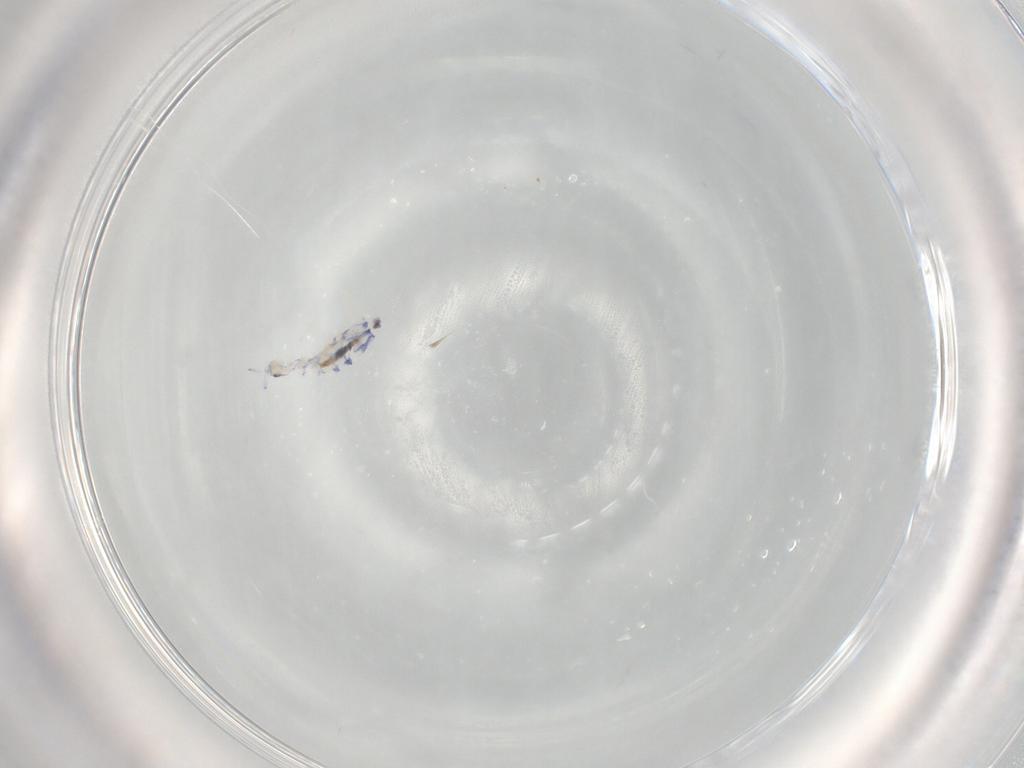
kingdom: Animalia
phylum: Arthropoda
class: Collembola
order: Entomobryomorpha
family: Entomobryidae
